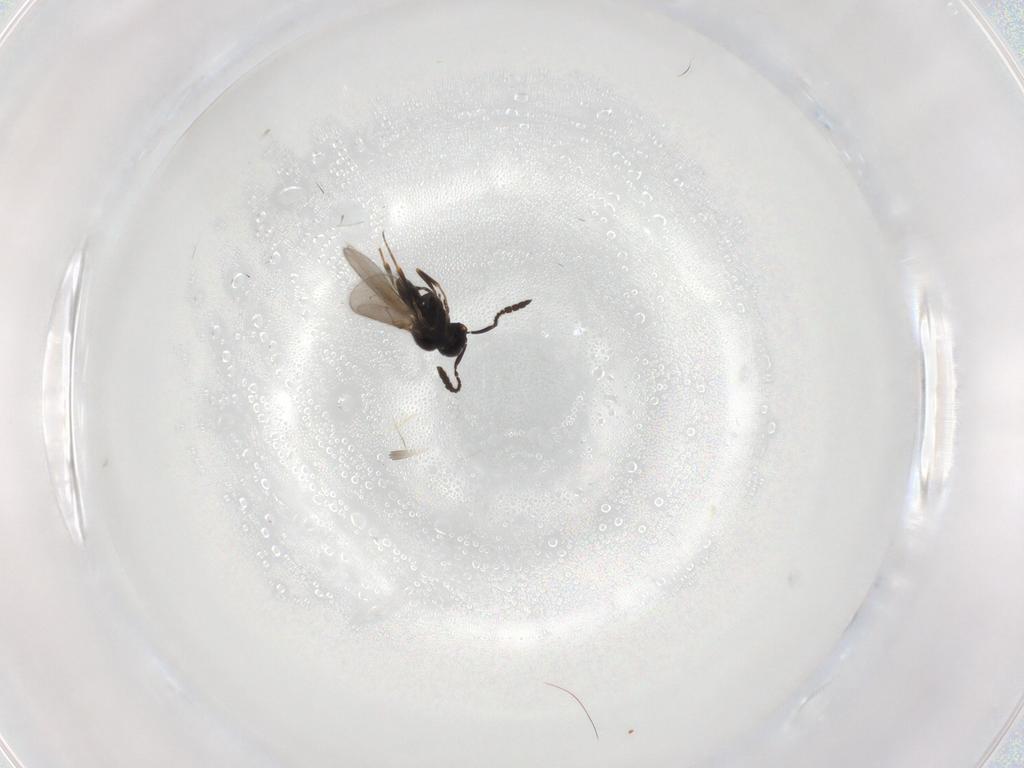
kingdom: Animalia
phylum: Arthropoda
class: Insecta
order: Hymenoptera
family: Scelionidae
